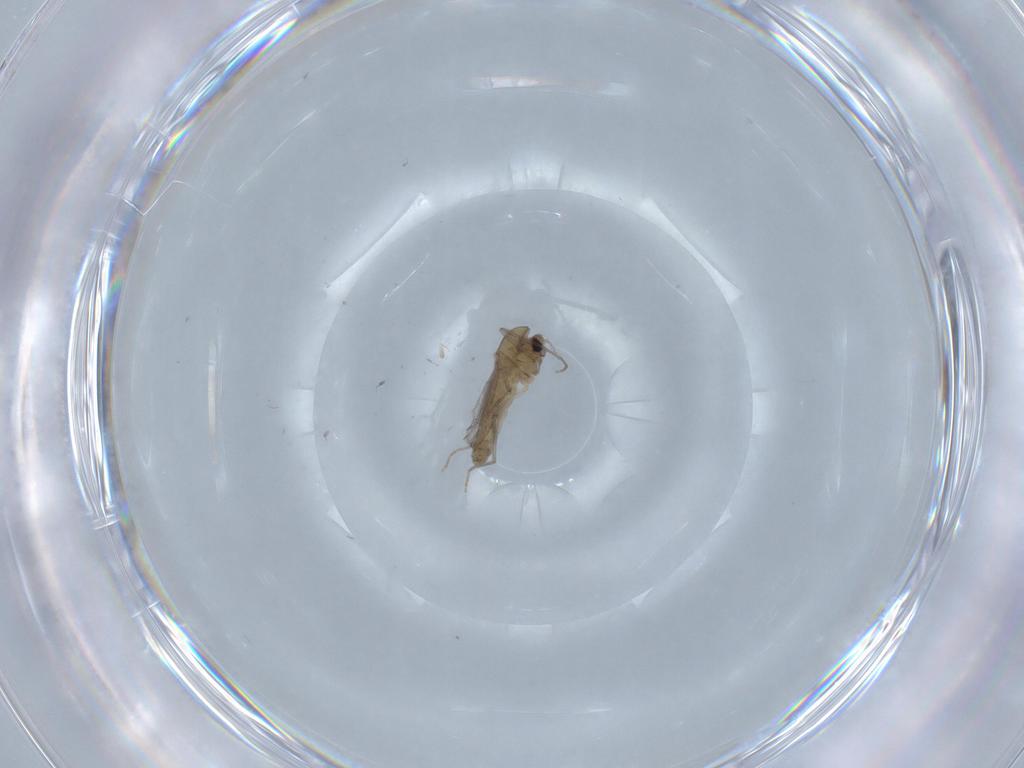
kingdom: Animalia
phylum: Arthropoda
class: Insecta
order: Diptera
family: Chironomidae
